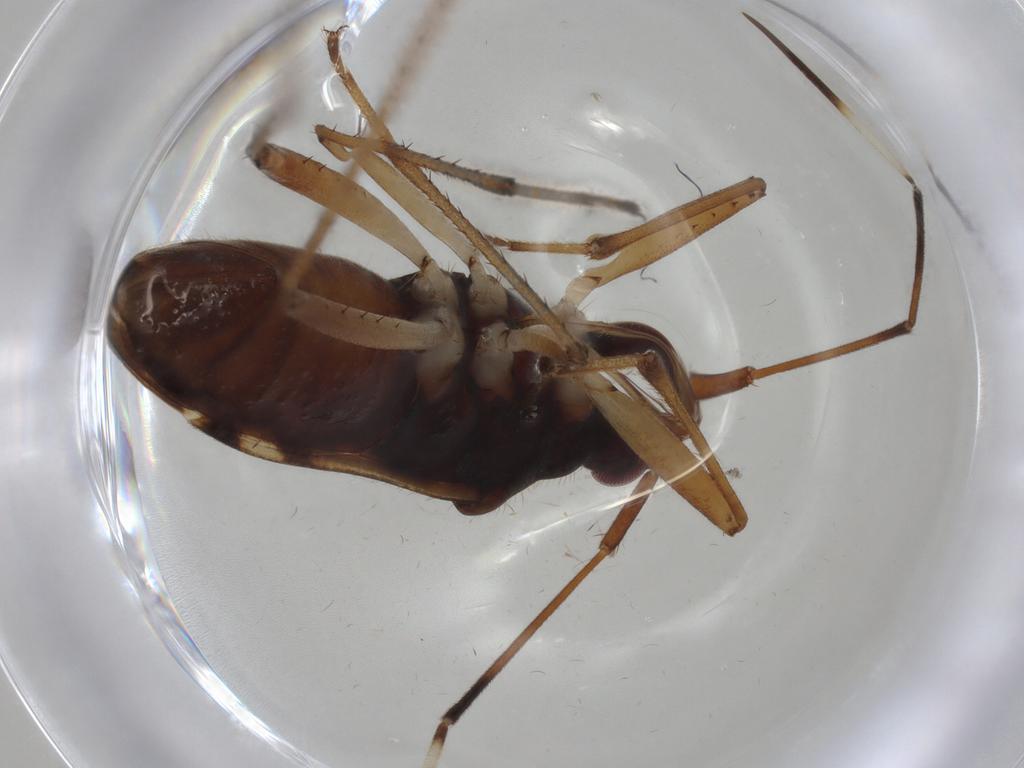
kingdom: Animalia
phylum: Arthropoda
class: Insecta
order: Hemiptera
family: Rhyparochromidae
